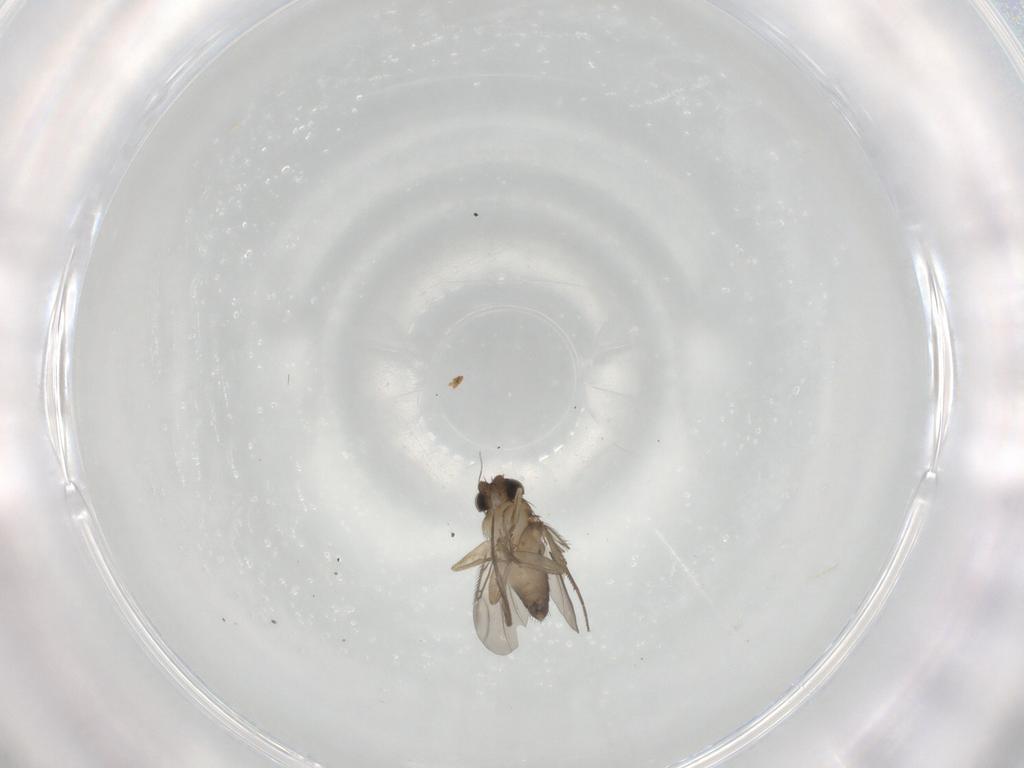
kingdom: Animalia
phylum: Arthropoda
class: Insecta
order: Diptera
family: Phoridae
